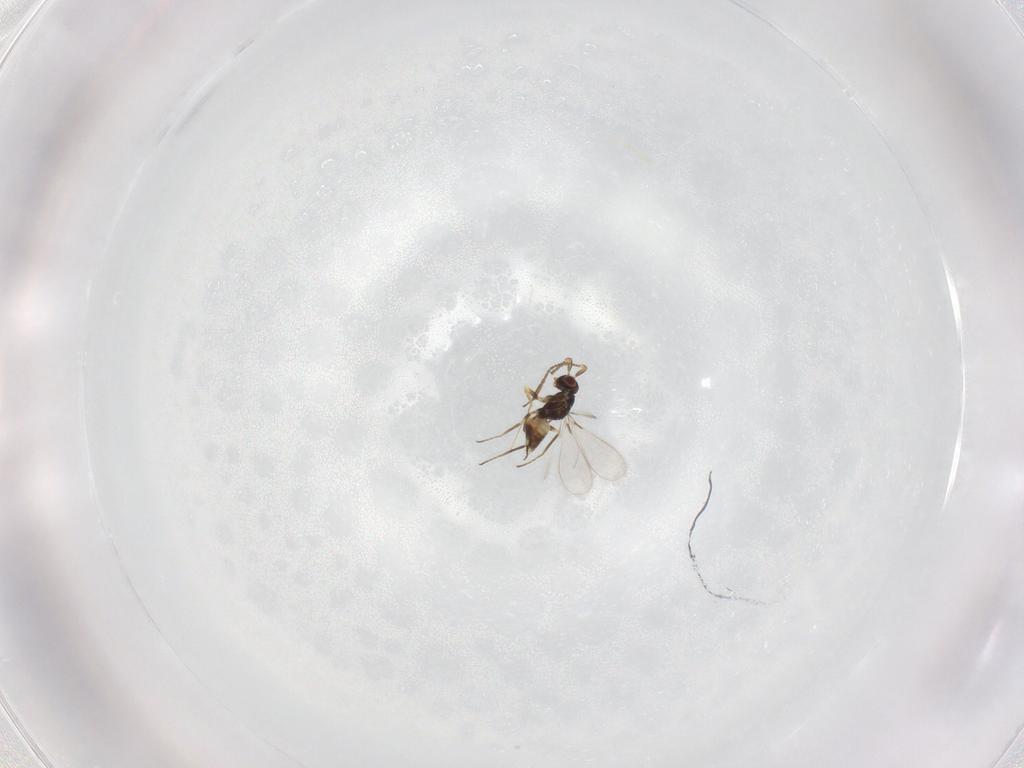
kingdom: Animalia
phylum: Arthropoda
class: Insecta
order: Hymenoptera
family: Mymaridae
